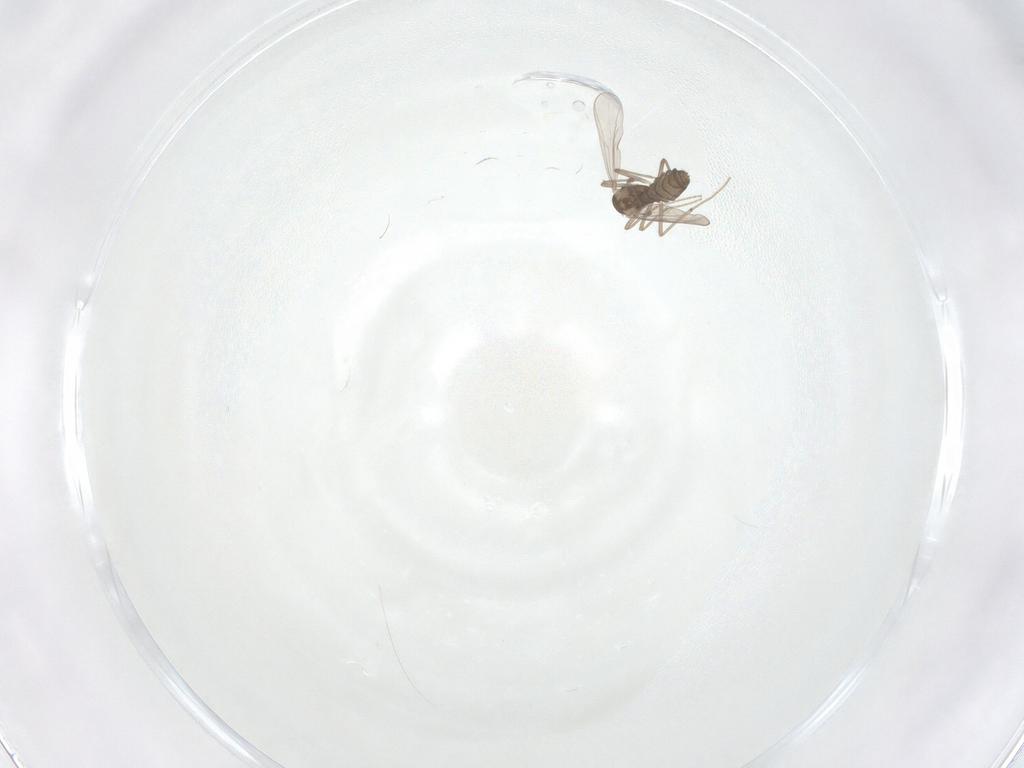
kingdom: Animalia
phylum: Arthropoda
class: Insecta
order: Diptera
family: Chironomidae
